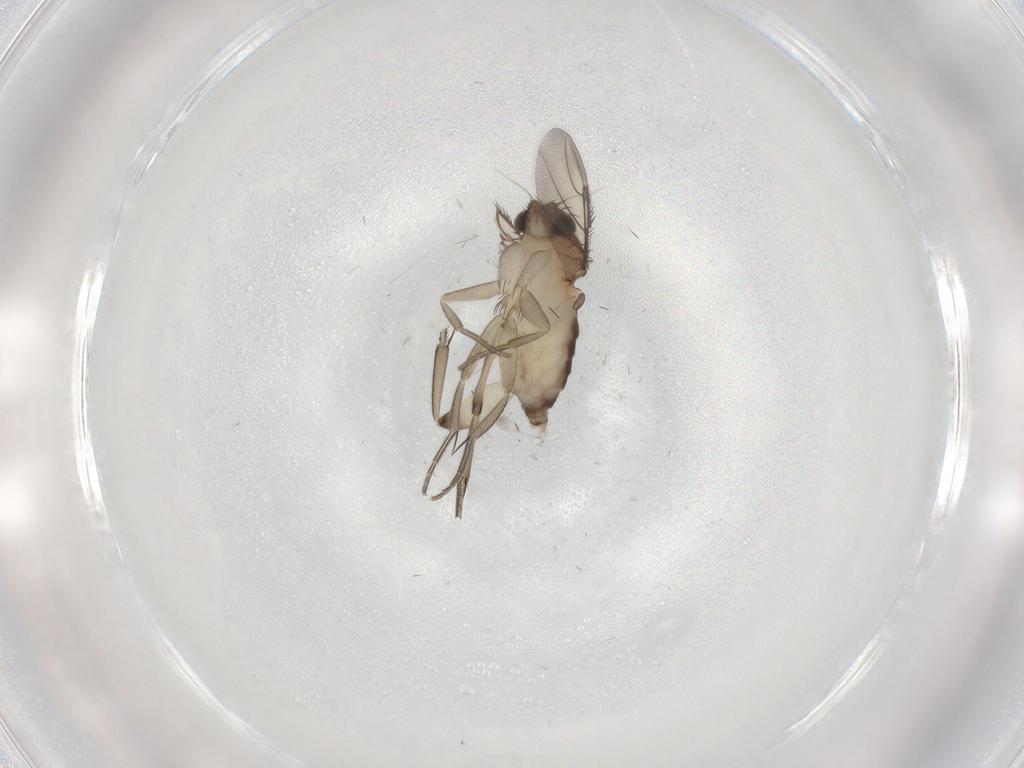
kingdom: Animalia
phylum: Arthropoda
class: Insecta
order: Diptera
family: Phoridae
